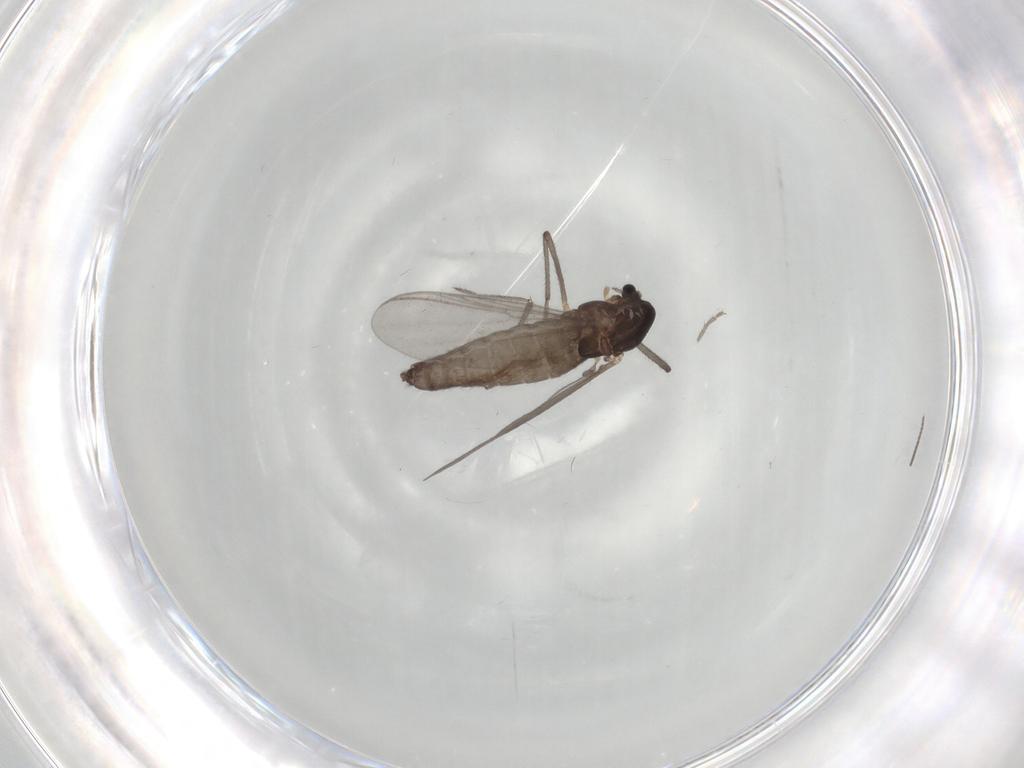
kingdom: Animalia
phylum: Arthropoda
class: Insecta
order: Diptera
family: Chironomidae
